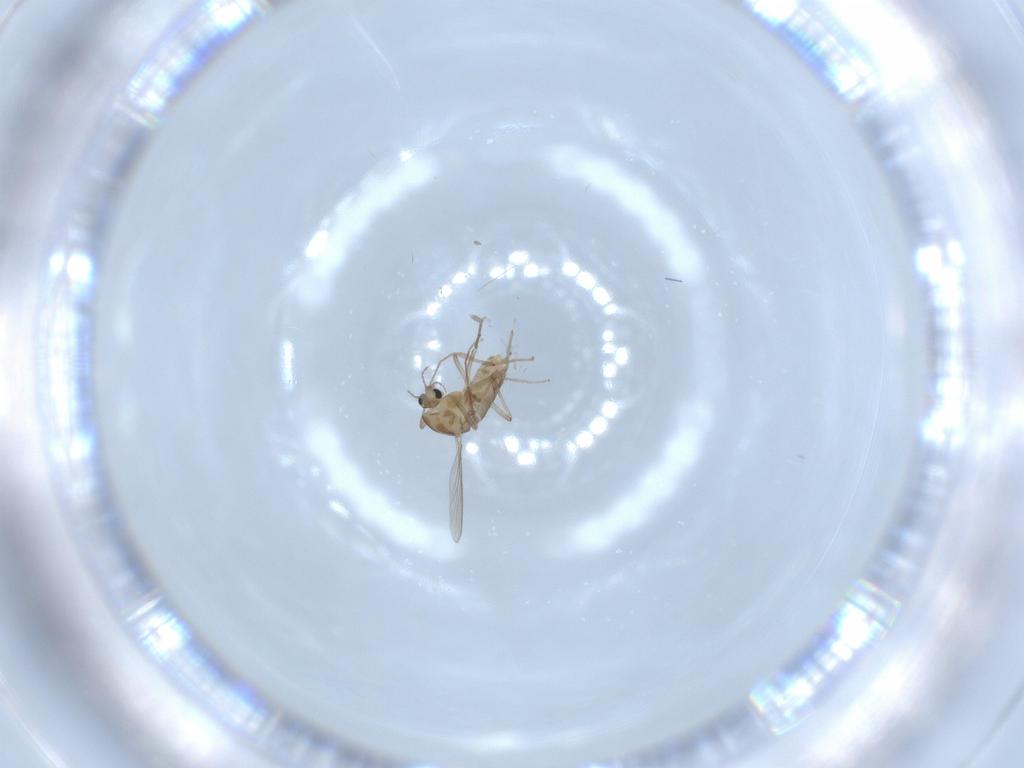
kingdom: Animalia
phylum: Arthropoda
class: Insecta
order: Diptera
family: Chironomidae
